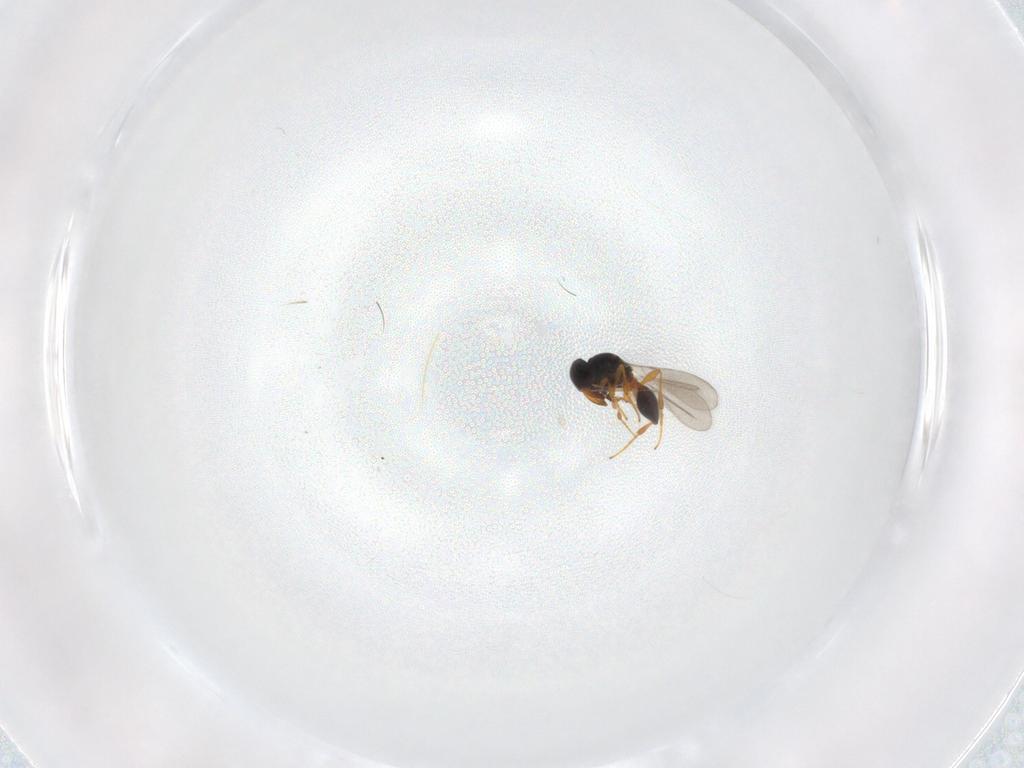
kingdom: Animalia
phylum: Arthropoda
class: Insecta
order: Hymenoptera
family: Platygastridae
